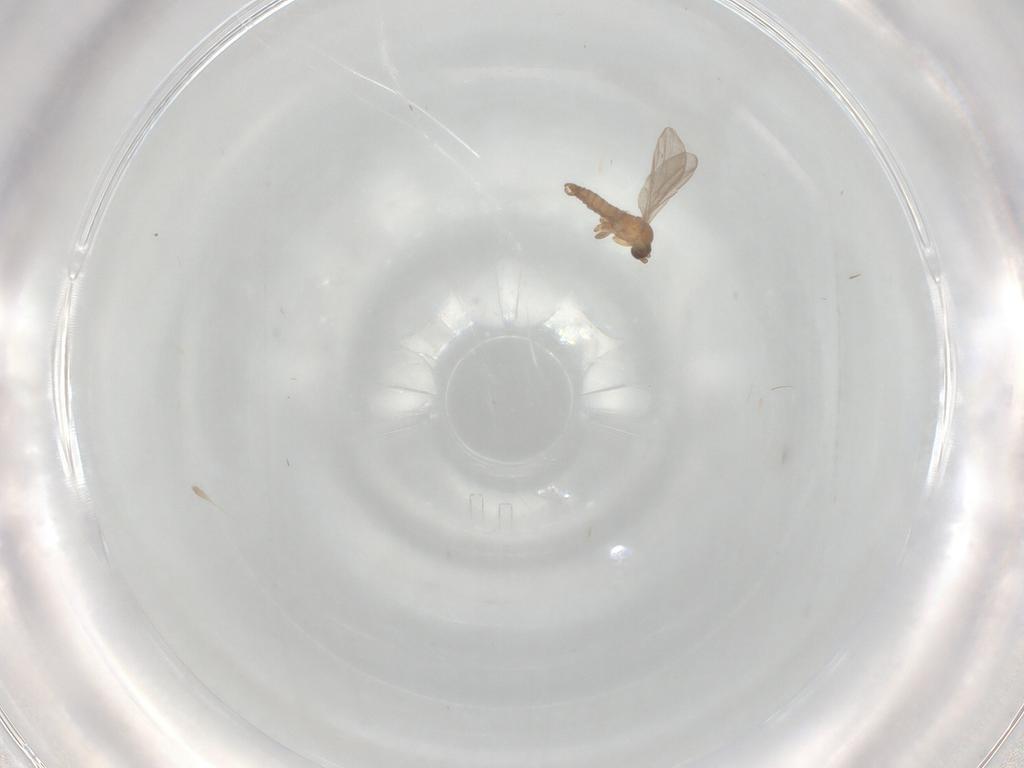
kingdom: Animalia
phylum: Arthropoda
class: Insecta
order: Diptera
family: Chironomidae
